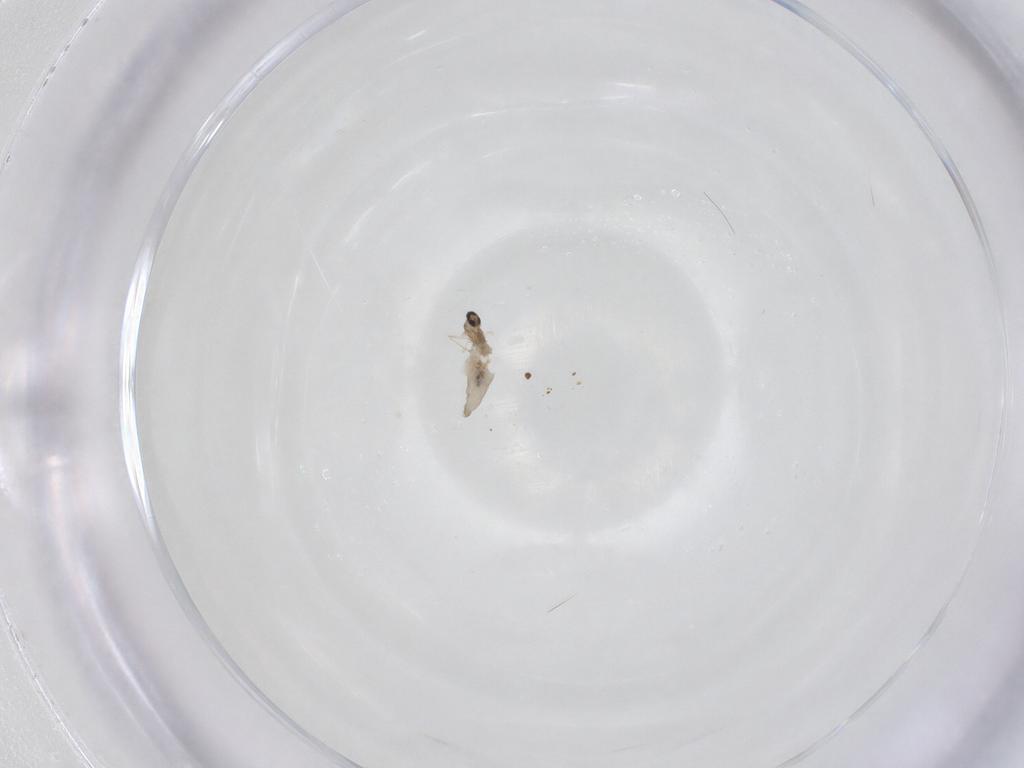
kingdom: Animalia
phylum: Arthropoda
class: Insecta
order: Diptera
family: Cecidomyiidae
